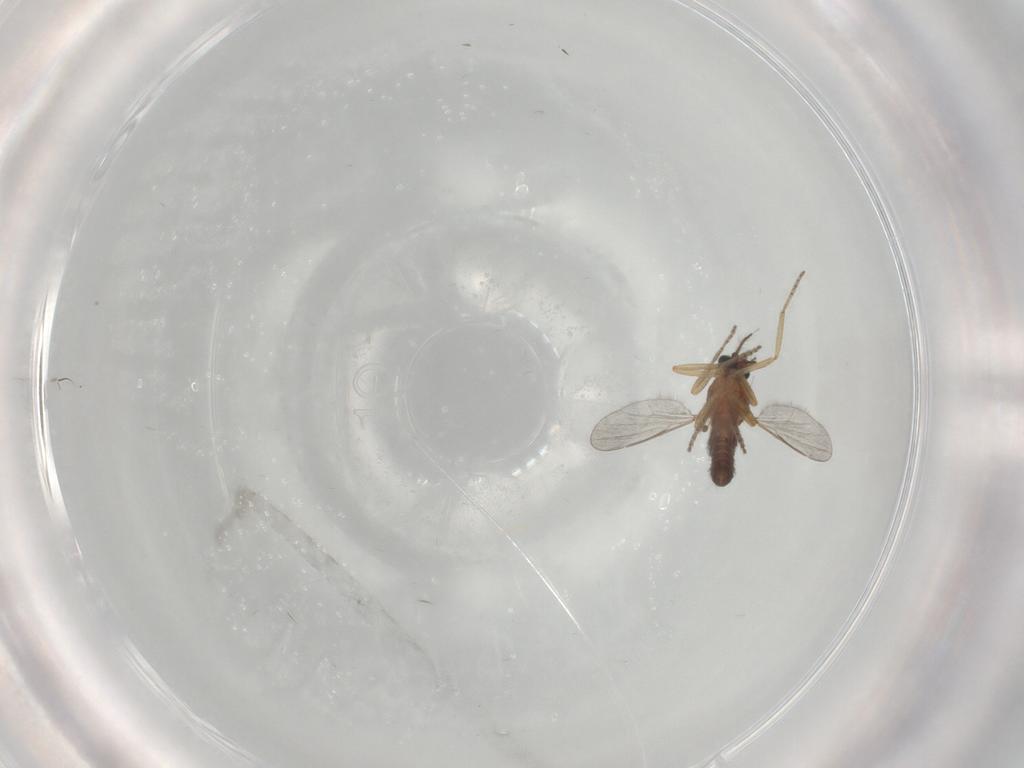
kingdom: Animalia
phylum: Arthropoda
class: Insecta
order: Diptera
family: Ceratopogonidae
